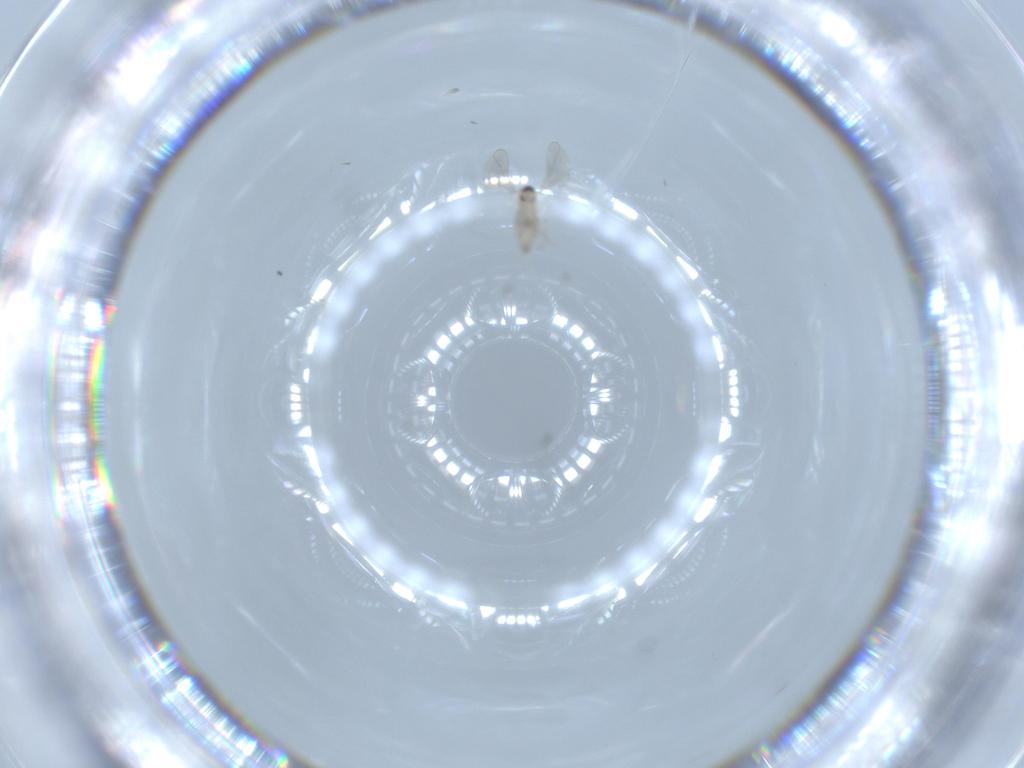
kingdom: Animalia
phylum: Arthropoda
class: Insecta
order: Diptera
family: Cecidomyiidae
